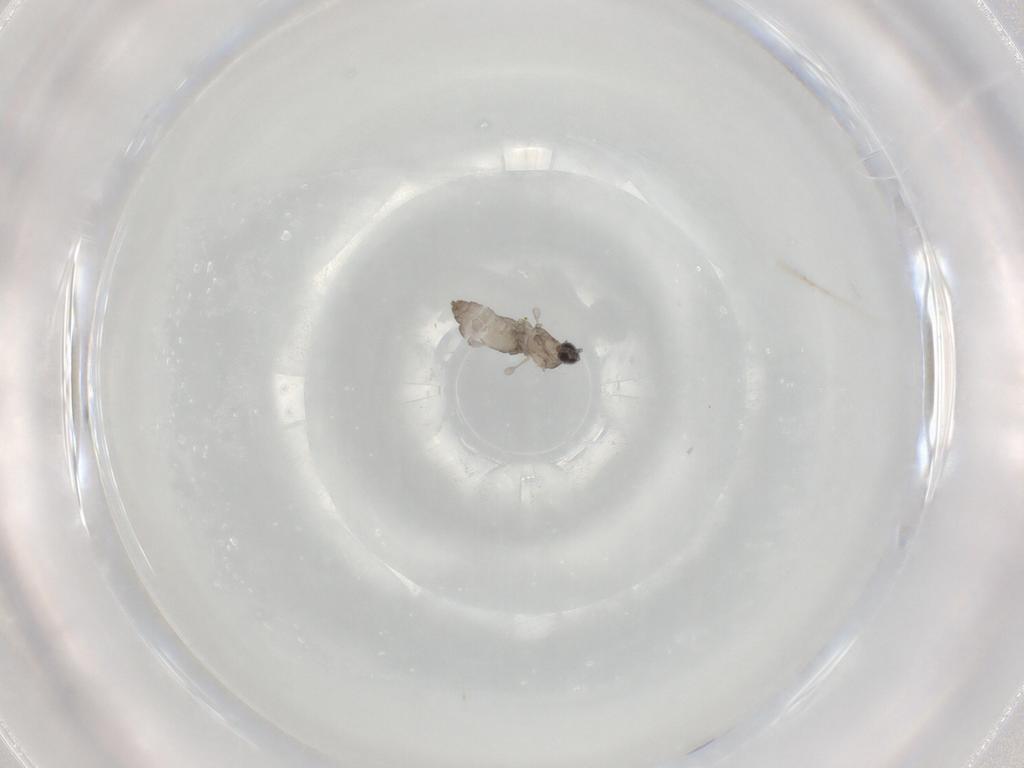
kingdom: Animalia
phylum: Arthropoda
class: Insecta
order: Diptera
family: Cecidomyiidae
